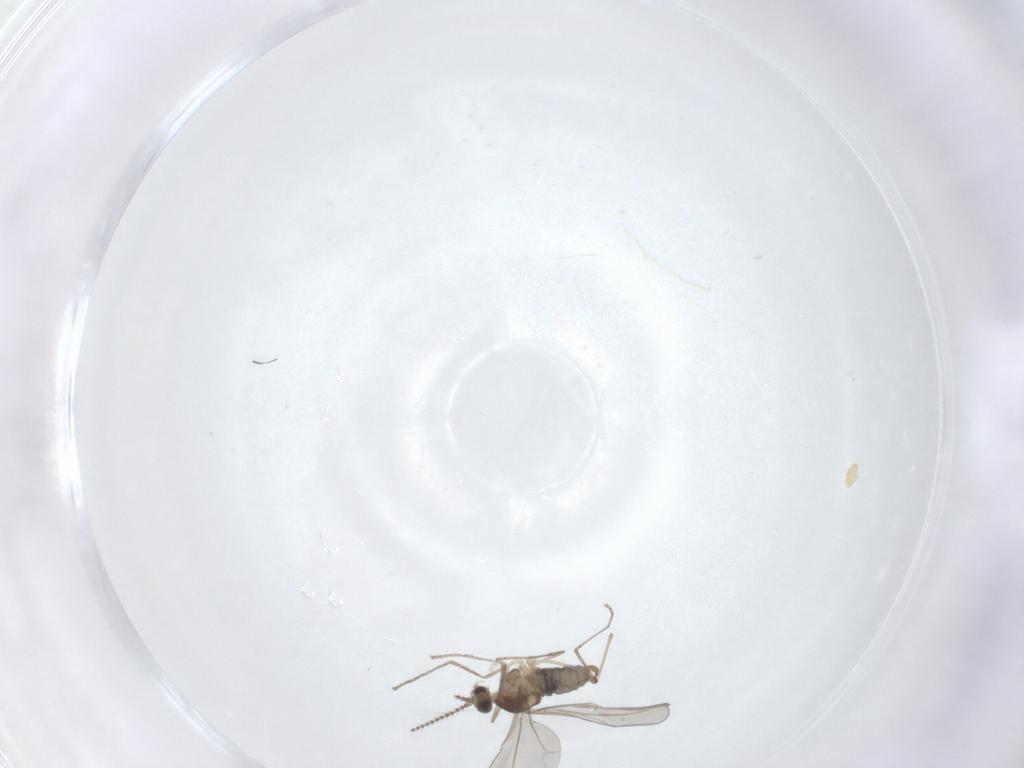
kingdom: Animalia
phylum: Arthropoda
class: Insecta
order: Diptera
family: Cecidomyiidae
